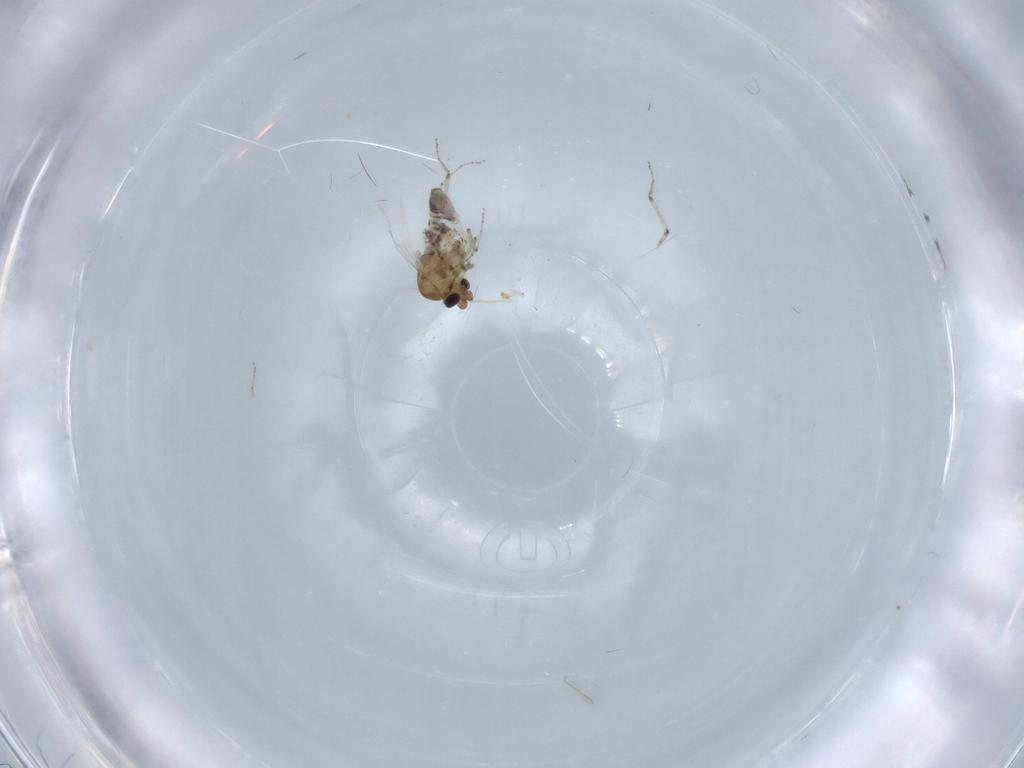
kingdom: Animalia
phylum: Arthropoda
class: Insecta
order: Diptera
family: Ceratopogonidae
